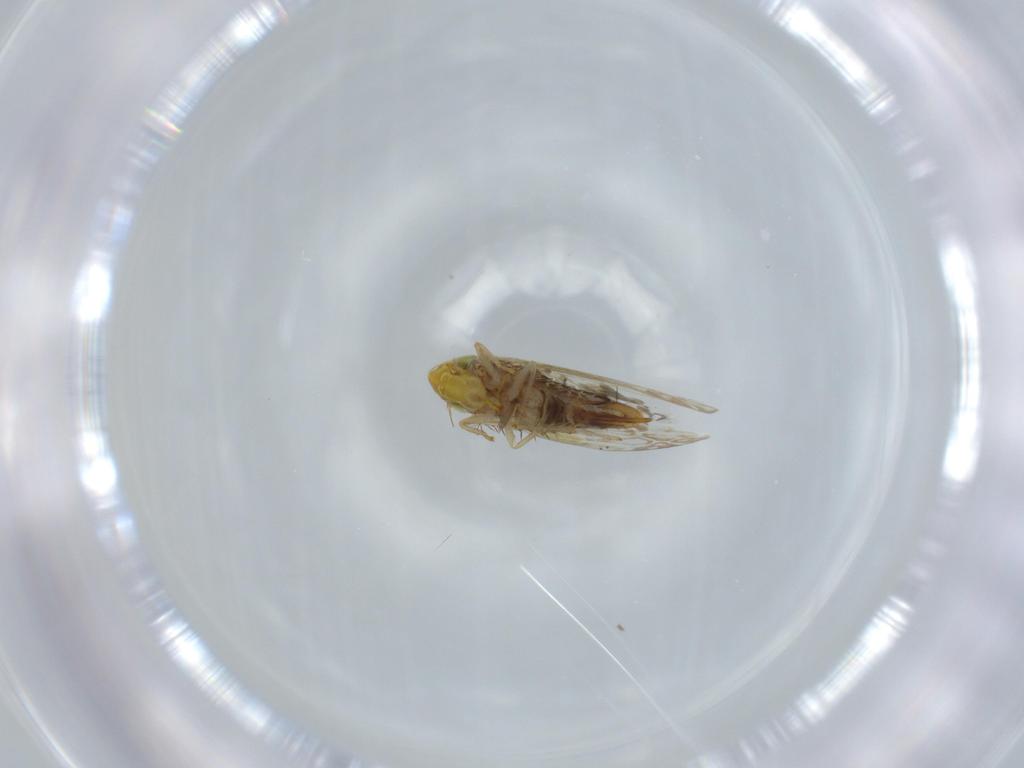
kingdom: Animalia
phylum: Arthropoda
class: Insecta
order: Hemiptera
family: Cicadellidae
